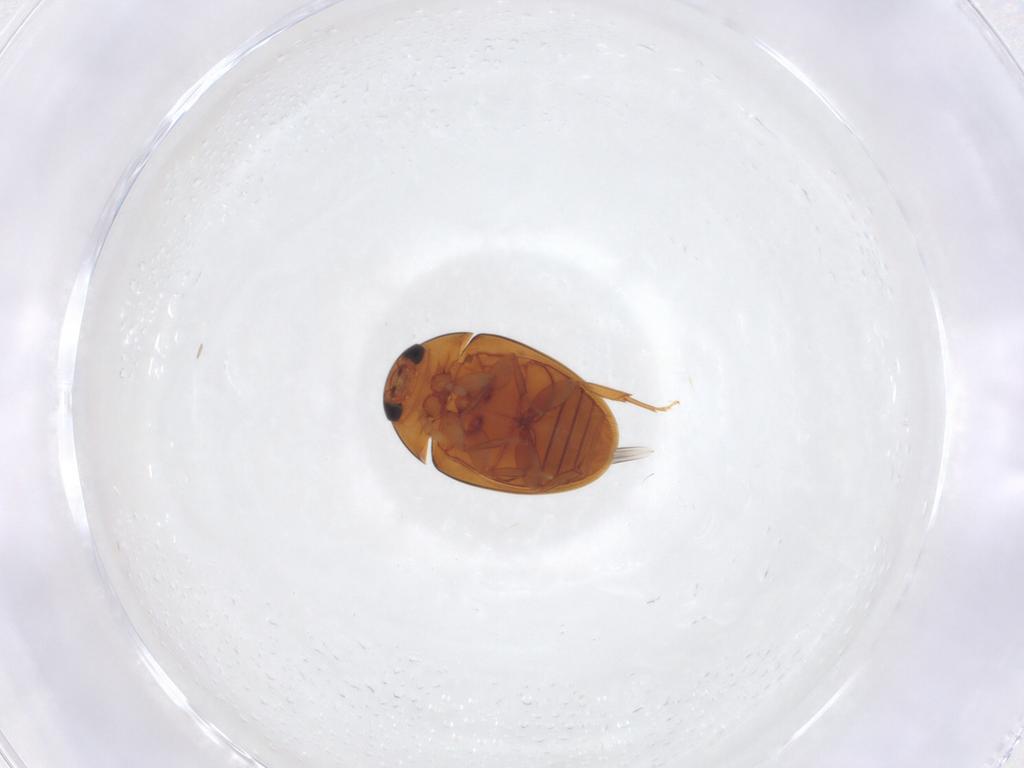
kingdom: Animalia
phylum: Arthropoda
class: Insecta
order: Coleoptera
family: Phalacridae
